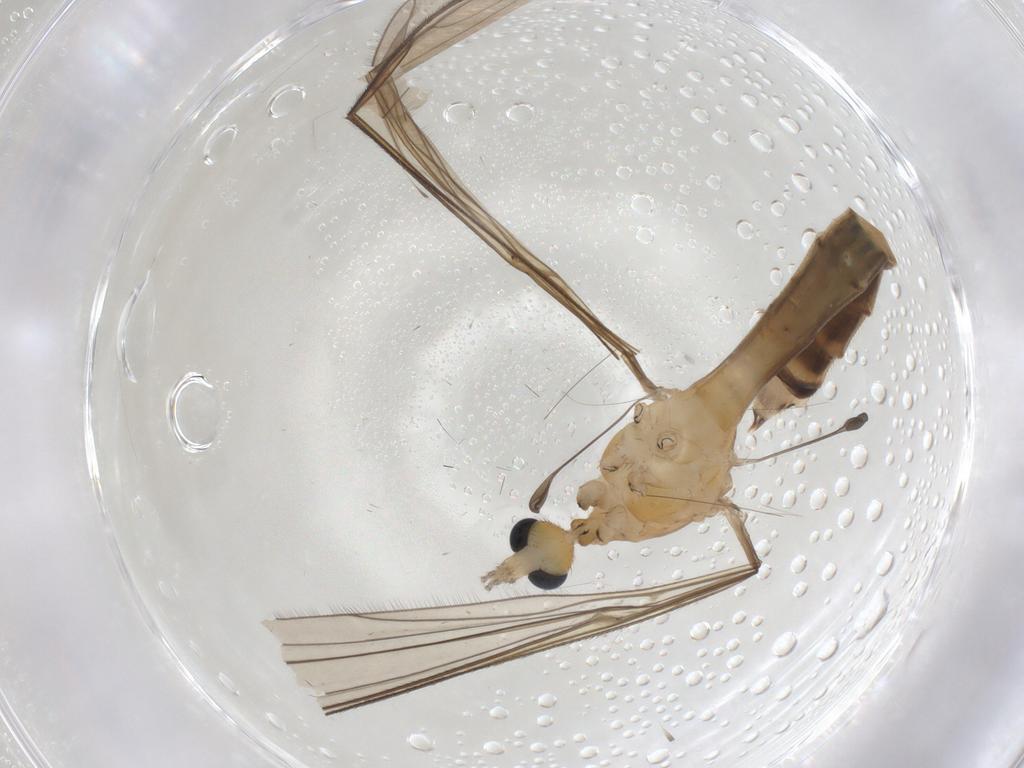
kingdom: Animalia
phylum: Arthropoda
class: Insecta
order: Diptera
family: Limoniidae
